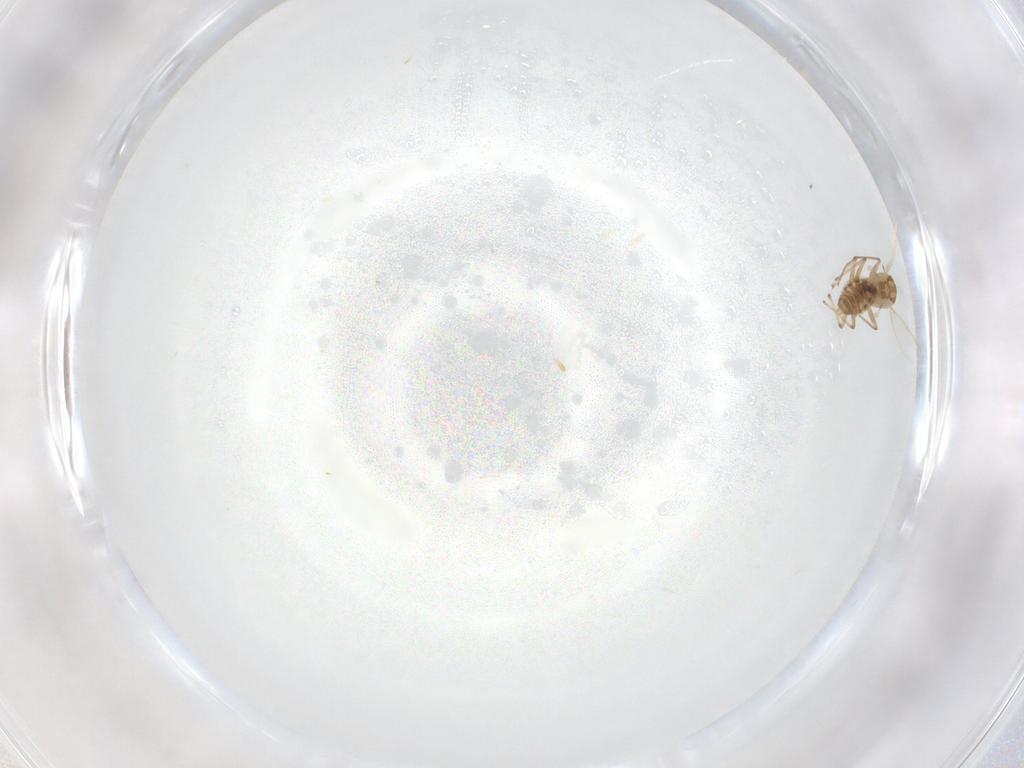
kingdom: Animalia
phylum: Arthropoda
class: Insecta
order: Diptera
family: Chironomidae
